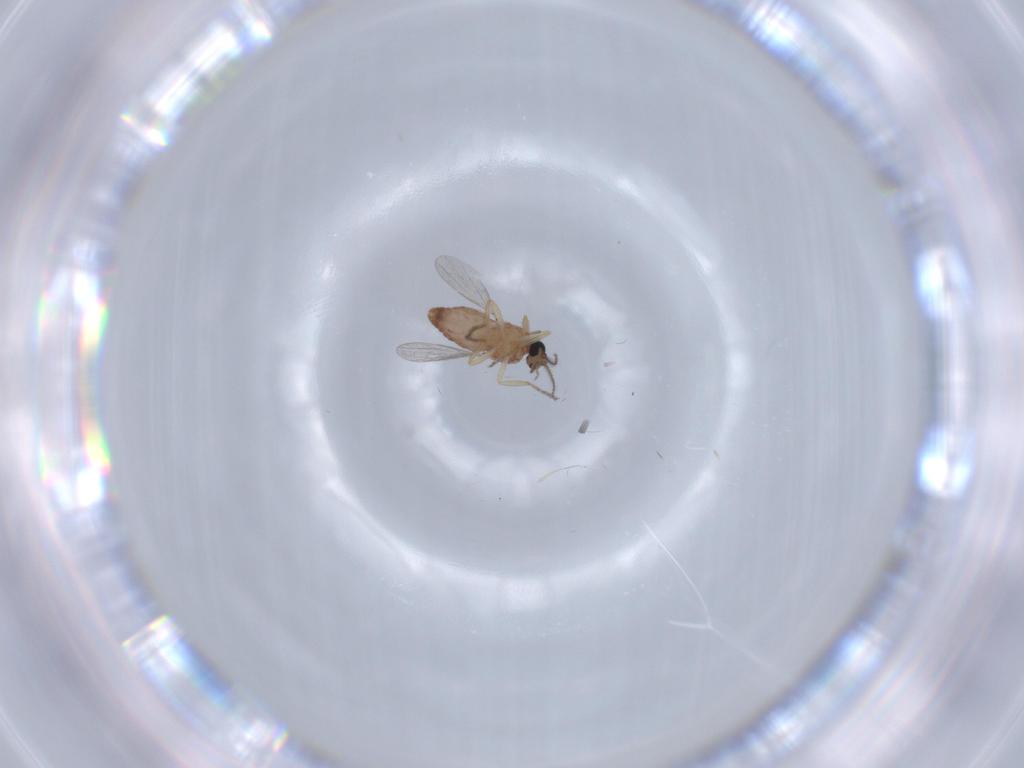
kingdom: Animalia
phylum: Arthropoda
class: Insecta
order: Diptera
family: Ceratopogonidae
